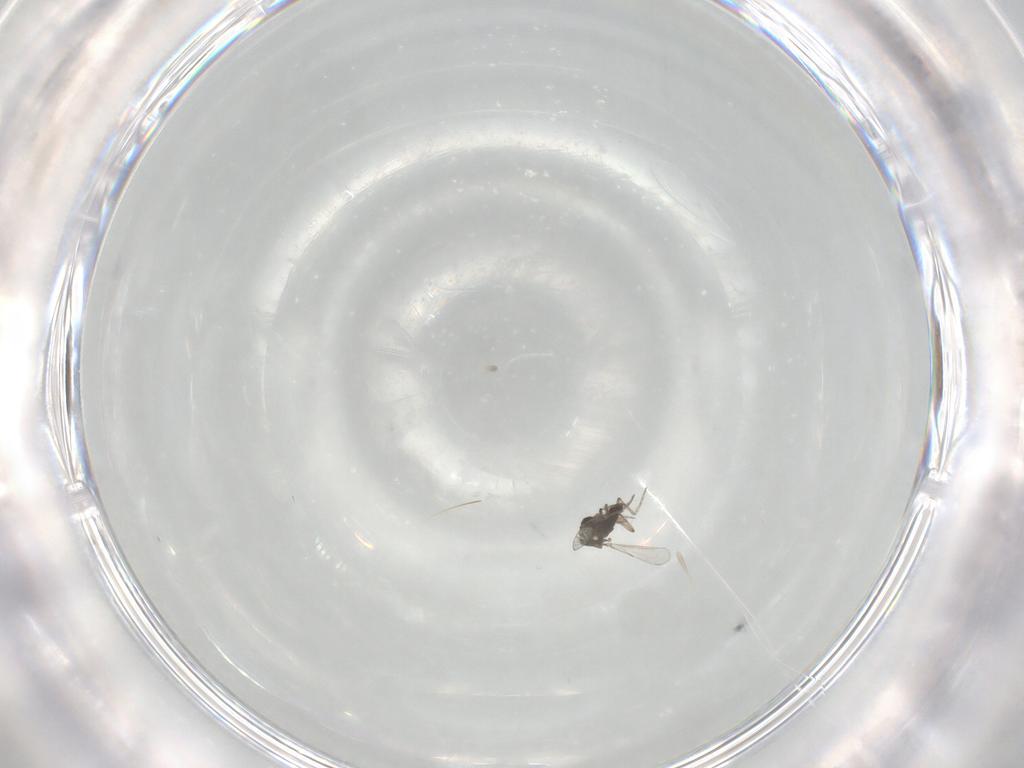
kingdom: Animalia
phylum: Arthropoda
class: Insecta
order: Diptera
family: Ceratopogonidae
